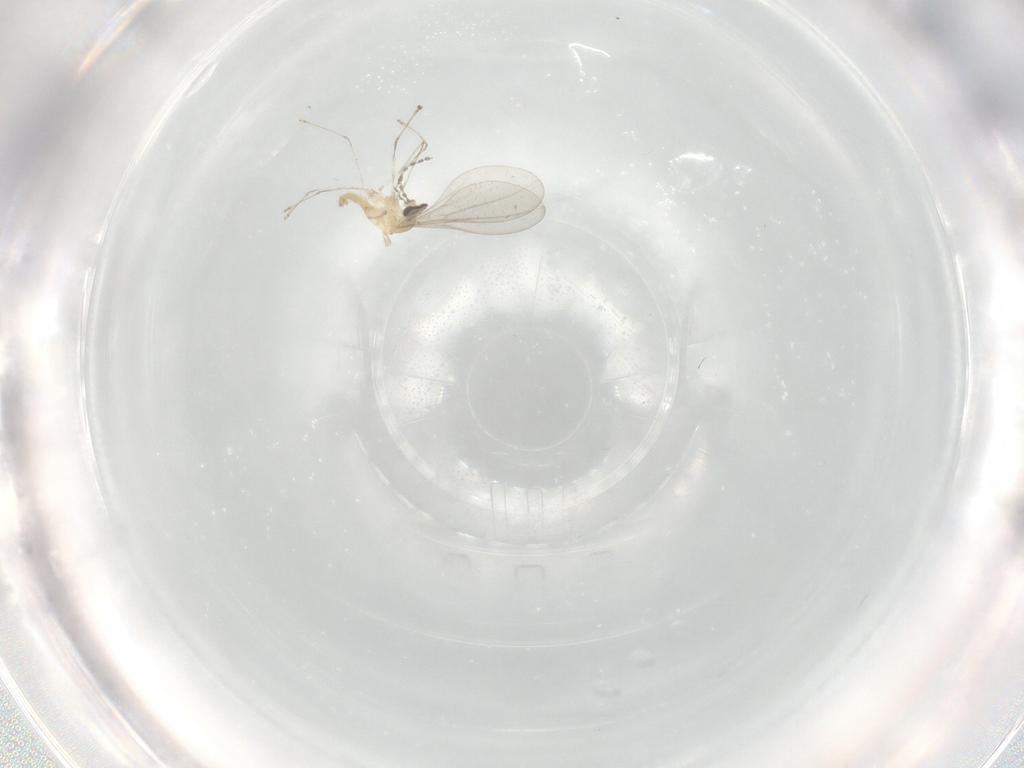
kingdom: Animalia
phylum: Arthropoda
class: Insecta
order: Diptera
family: Cecidomyiidae
